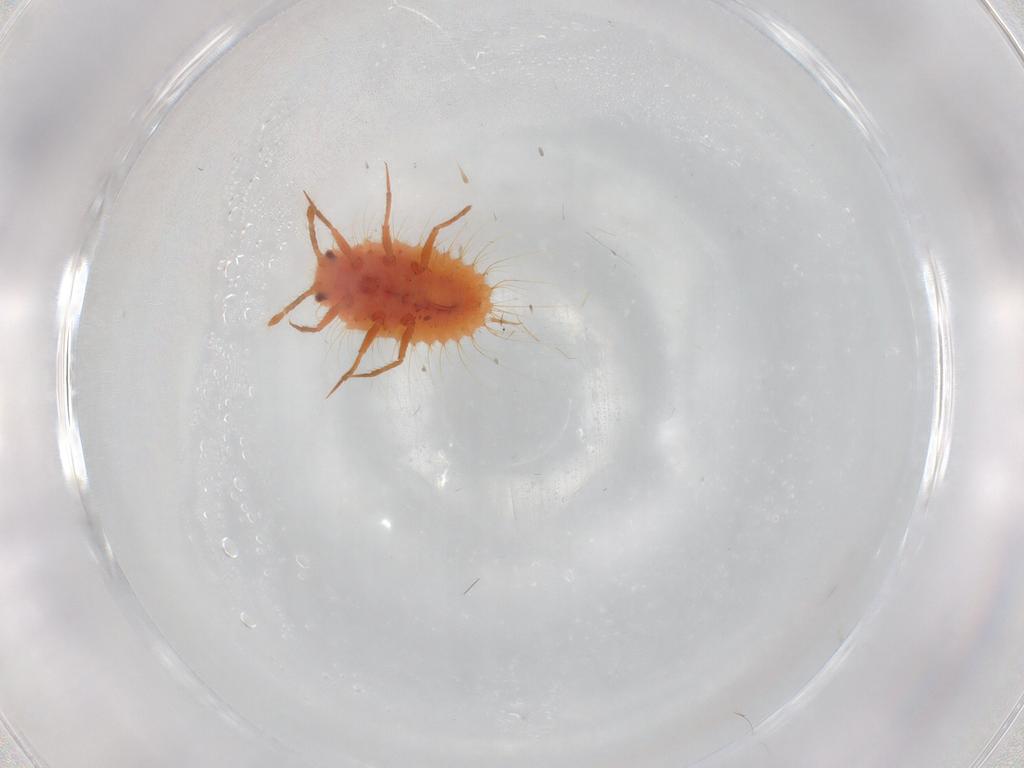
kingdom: Animalia
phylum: Arthropoda
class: Insecta
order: Hemiptera
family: Coccoidea_incertae_sedis
